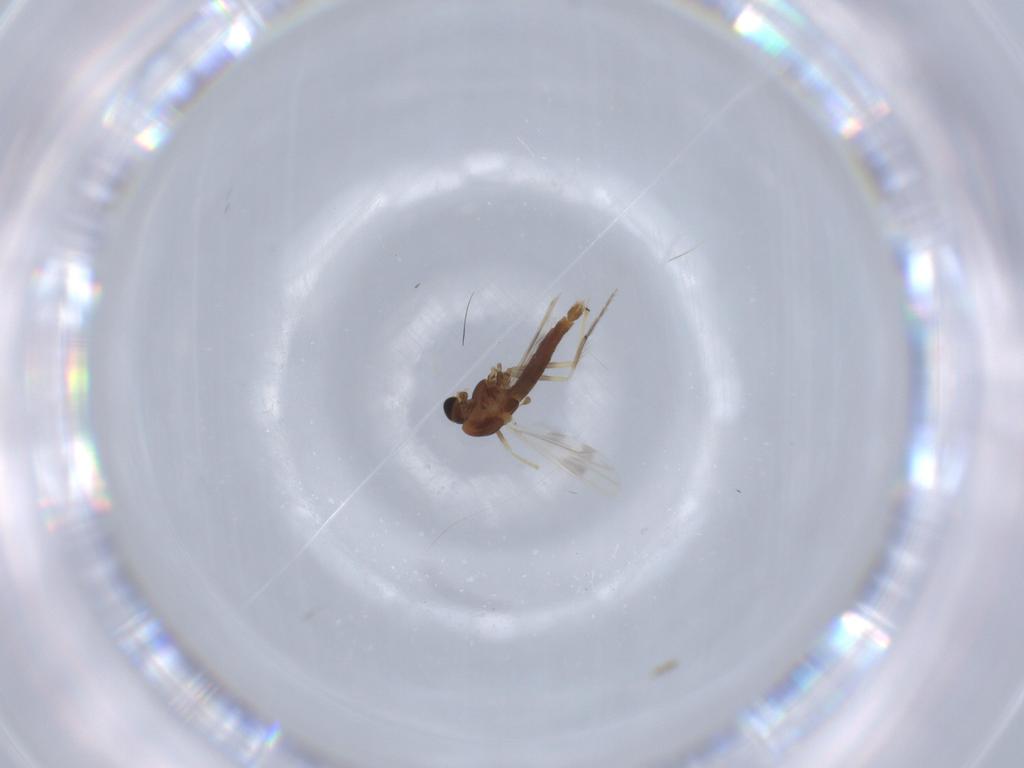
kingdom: Animalia
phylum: Arthropoda
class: Insecta
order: Diptera
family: Chironomidae
